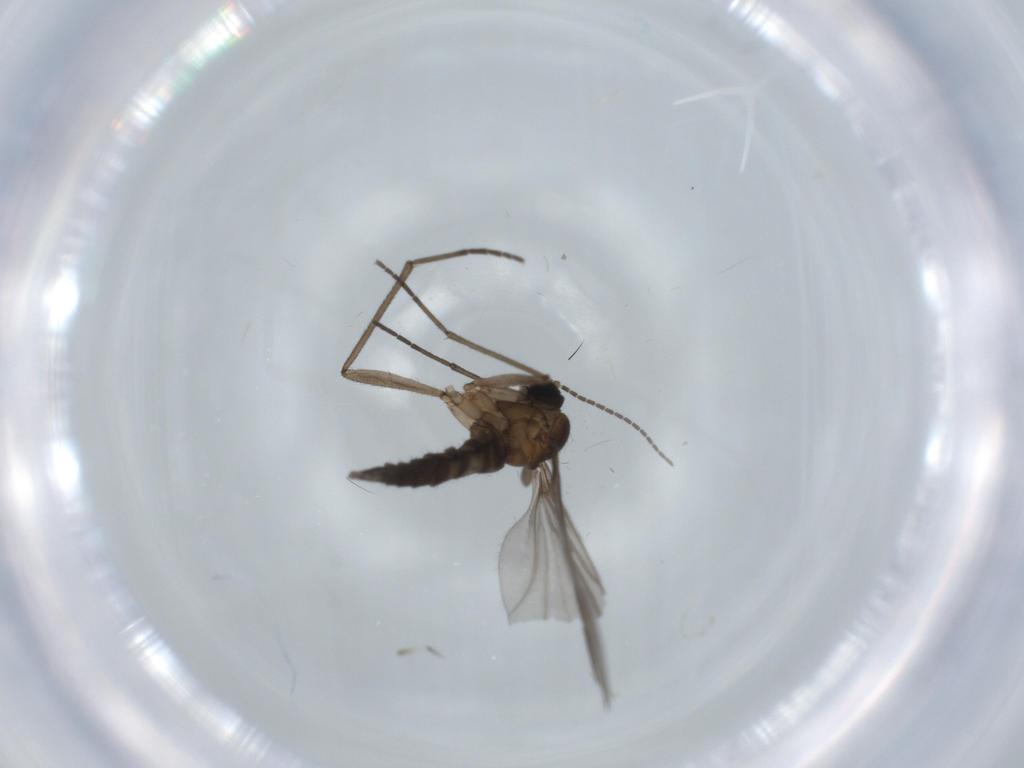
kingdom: Animalia
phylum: Arthropoda
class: Insecta
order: Diptera
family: Sciaridae
